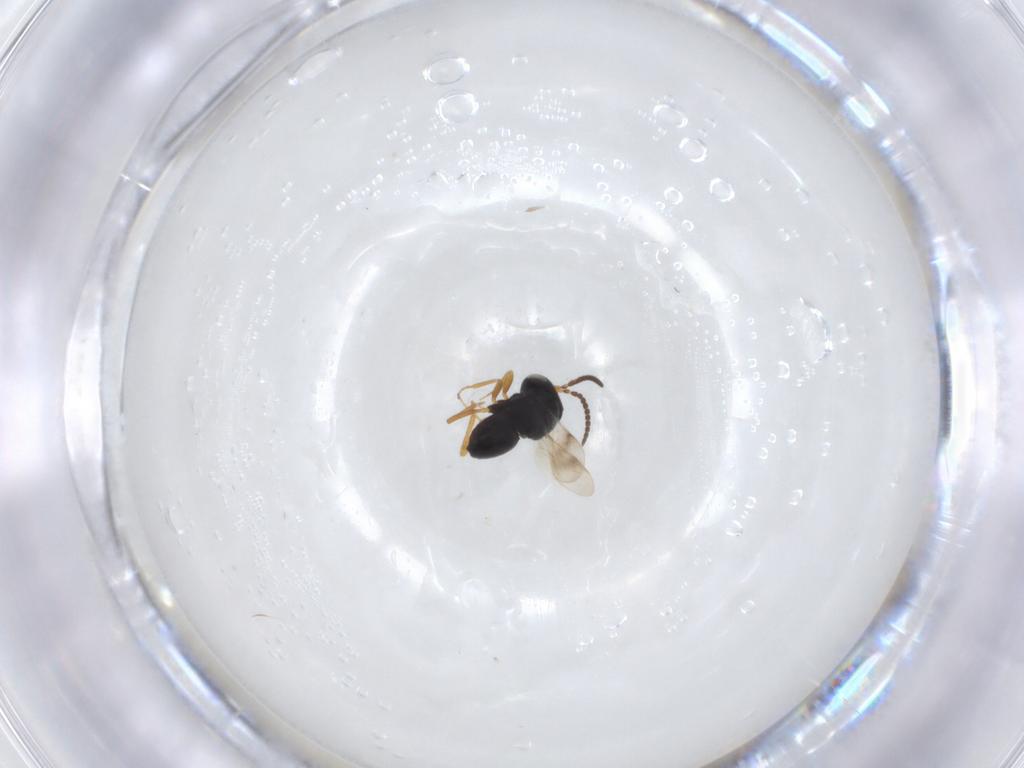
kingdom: Animalia
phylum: Arthropoda
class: Insecta
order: Hymenoptera
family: Scelionidae
